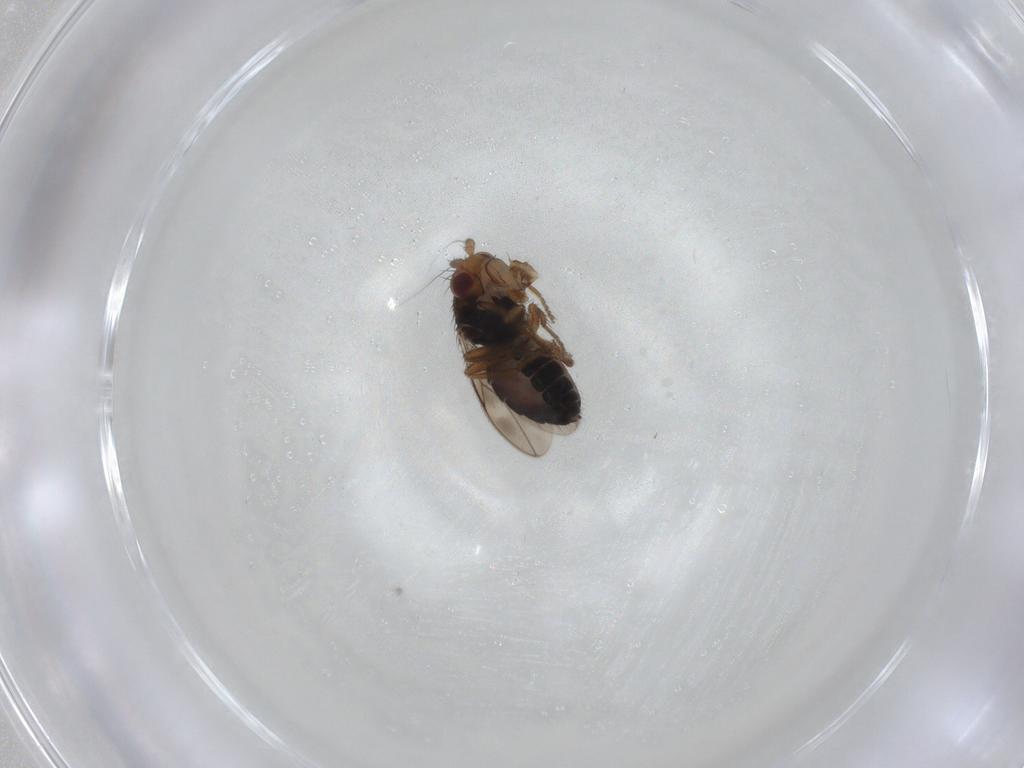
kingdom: Animalia
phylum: Arthropoda
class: Insecta
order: Diptera
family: Sphaeroceridae
